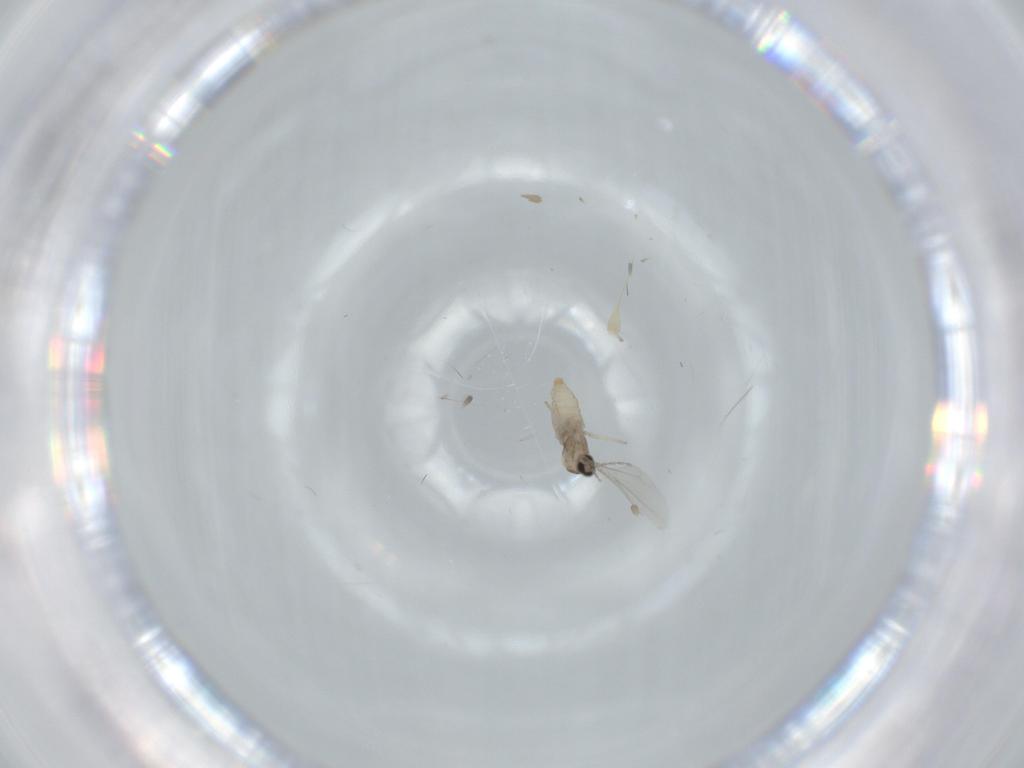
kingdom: Animalia
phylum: Arthropoda
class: Insecta
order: Diptera
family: Cecidomyiidae
